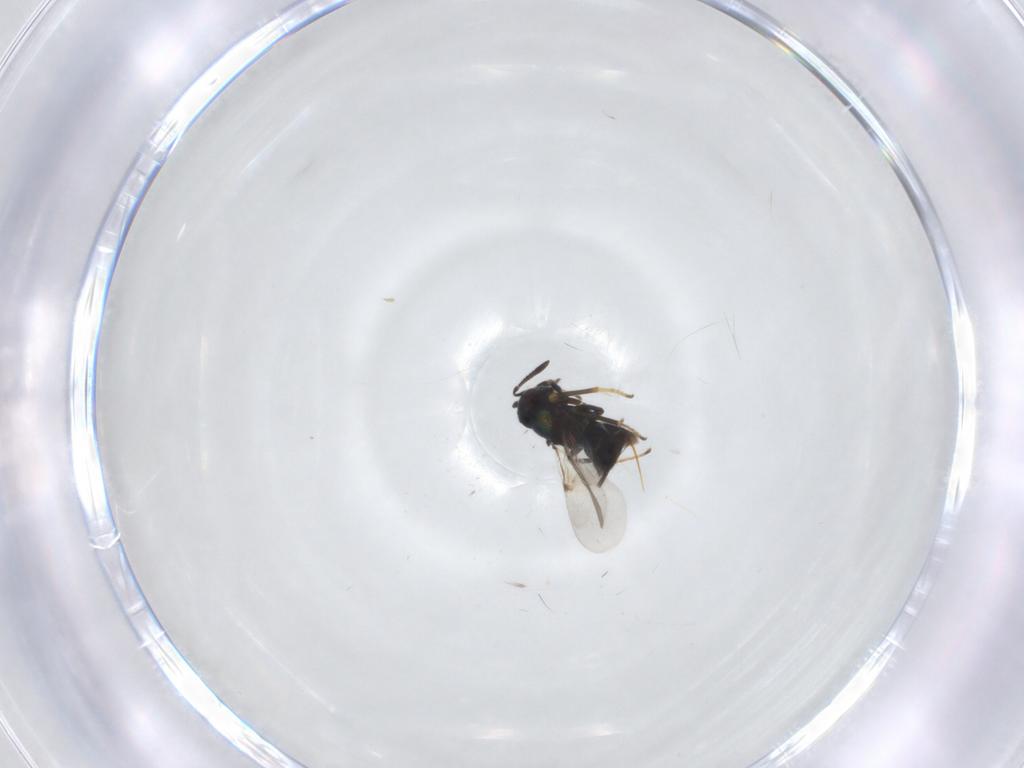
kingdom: Animalia
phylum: Arthropoda
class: Insecta
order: Hymenoptera
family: Encyrtidae
